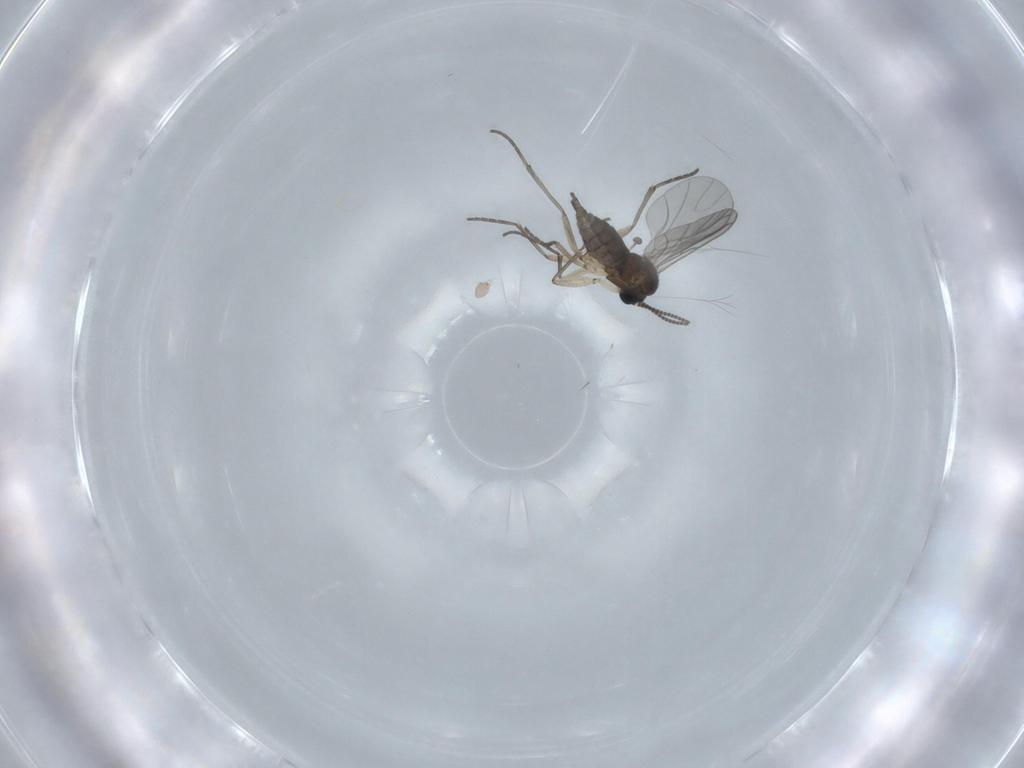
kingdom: Animalia
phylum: Arthropoda
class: Insecta
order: Diptera
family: Sciaridae
